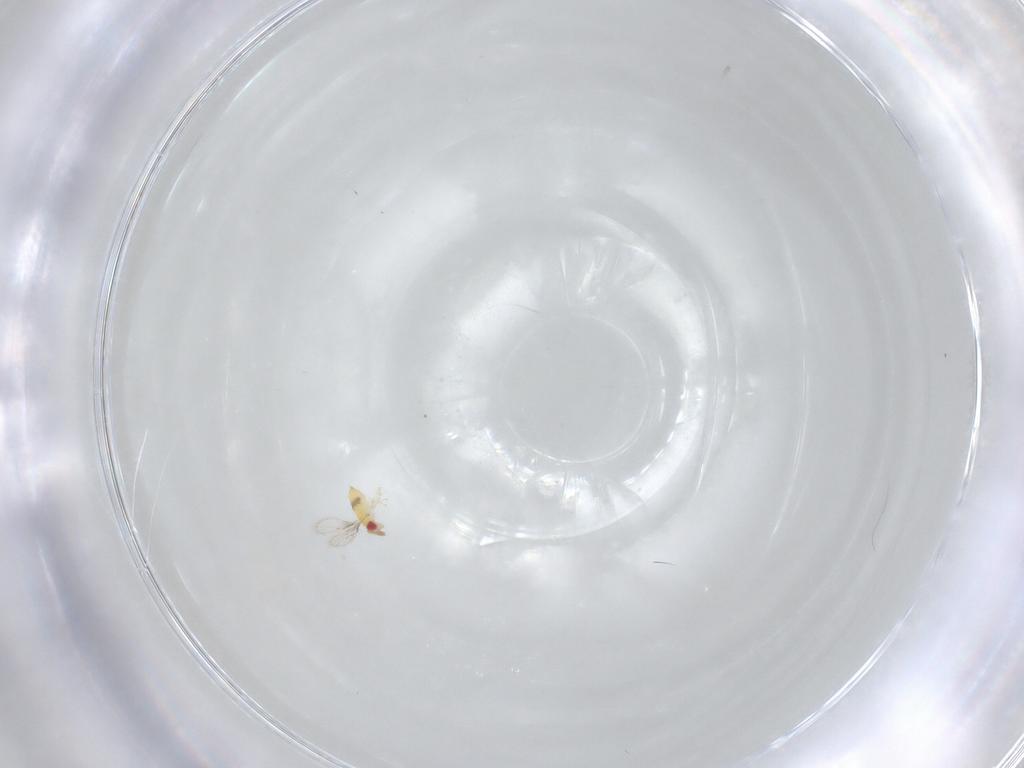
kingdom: Animalia
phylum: Arthropoda
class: Insecta
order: Hymenoptera
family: Trichogrammatidae
